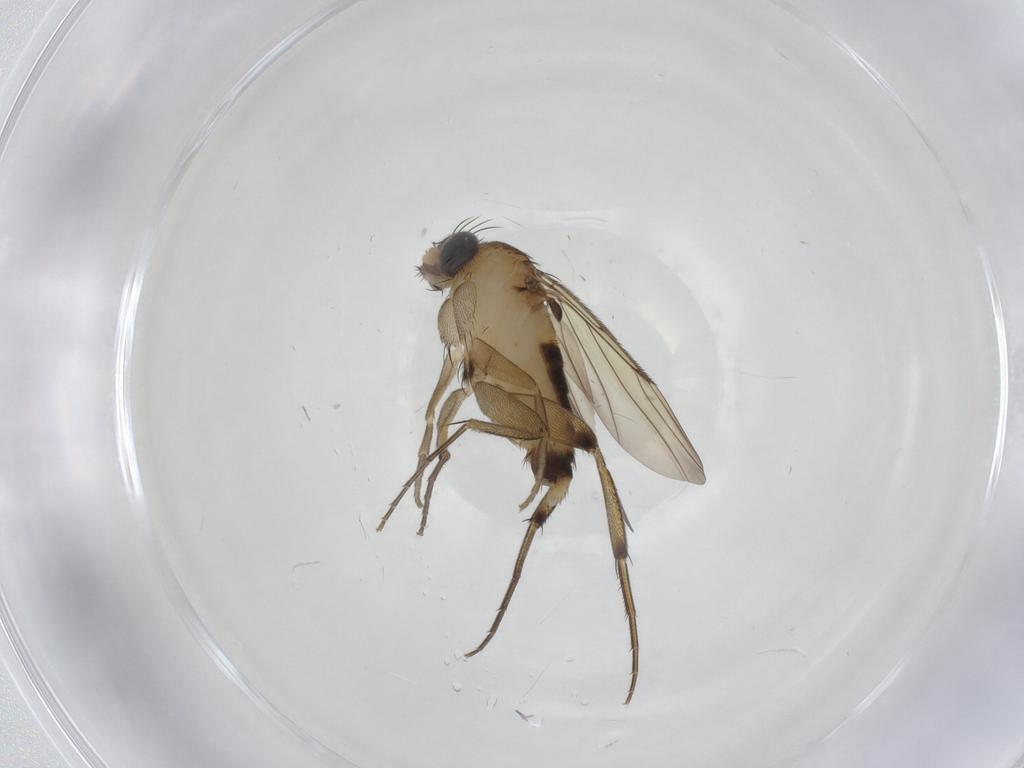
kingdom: Animalia
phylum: Arthropoda
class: Insecta
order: Diptera
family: Phoridae
